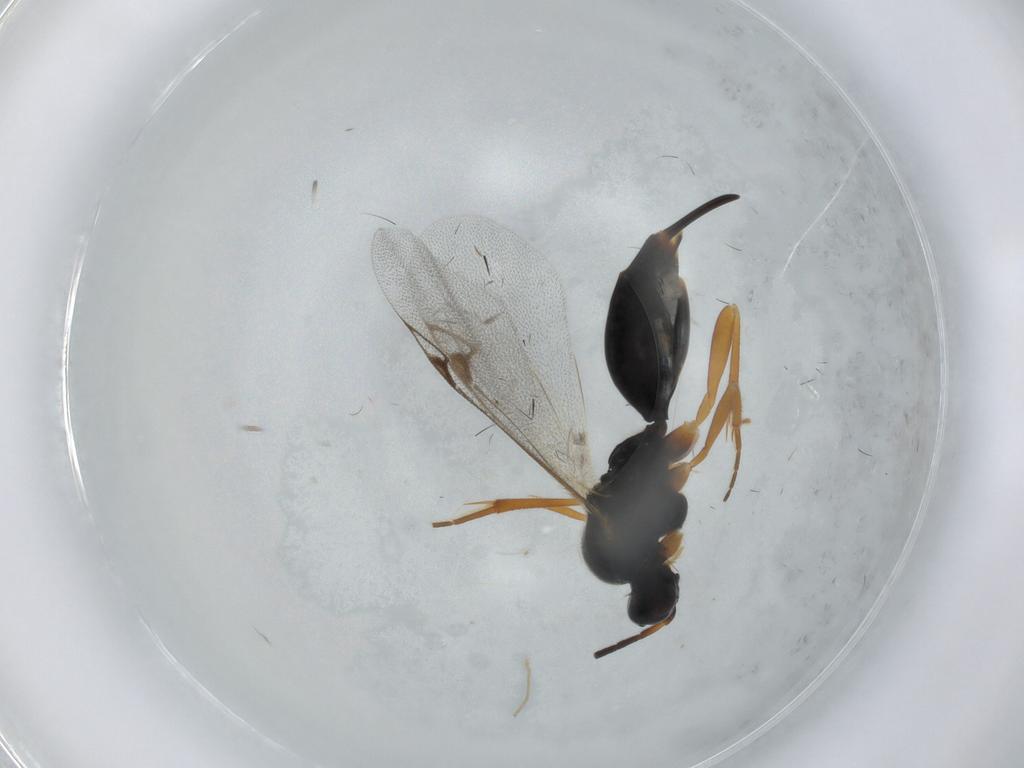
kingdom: Animalia
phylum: Arthropoda
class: Insecta
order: Hymenoptera
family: Proctotrupidae
